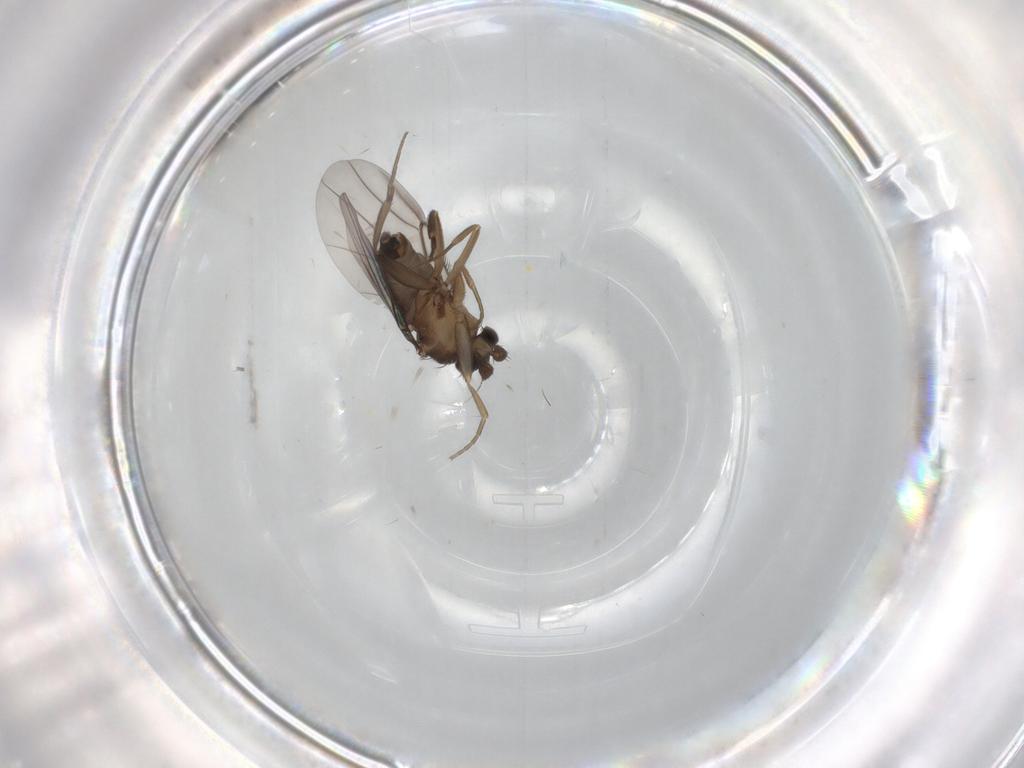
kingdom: Animalia
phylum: Arthropoda
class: Insecta
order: Diptera
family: Phoridae
